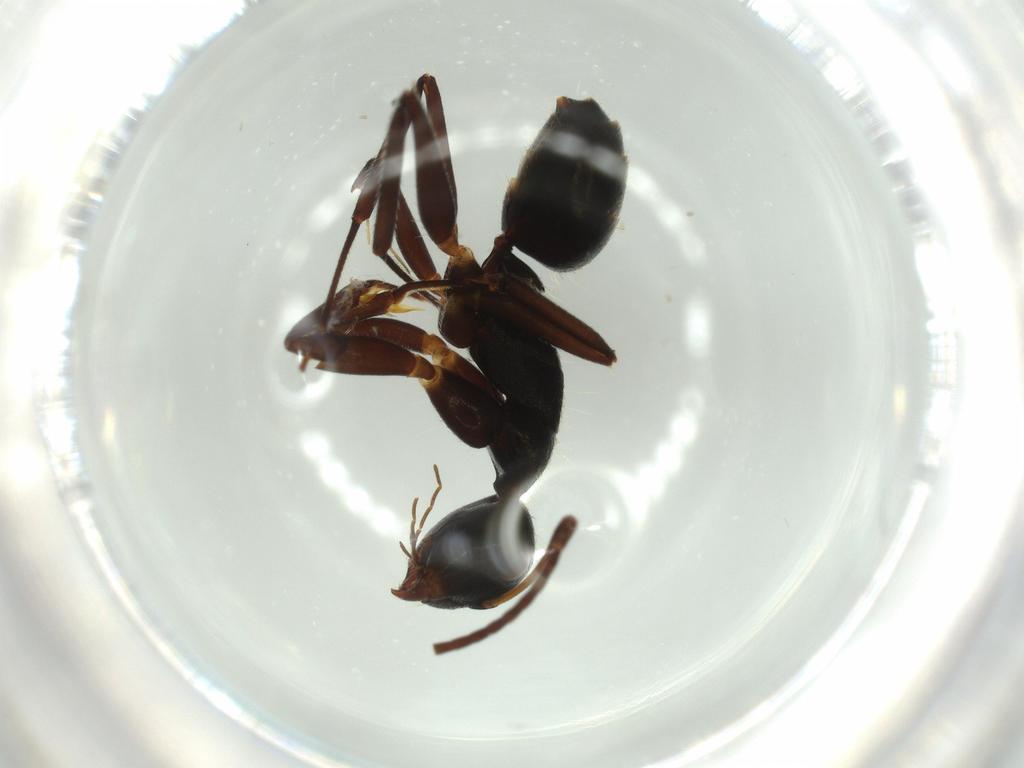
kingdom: Animalia
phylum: Arthropoda
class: Insecta
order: Hymenoptera
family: Formicidae
